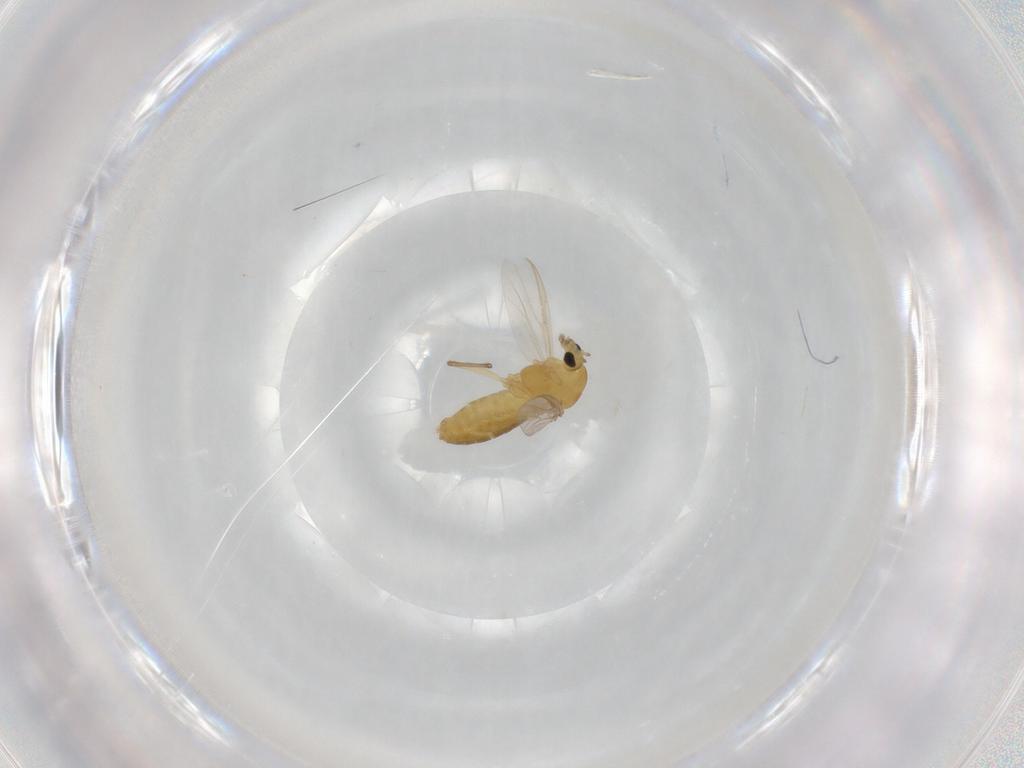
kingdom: Animalia
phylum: Arthropoda
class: Insecta
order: Diptera
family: Chironomidae
